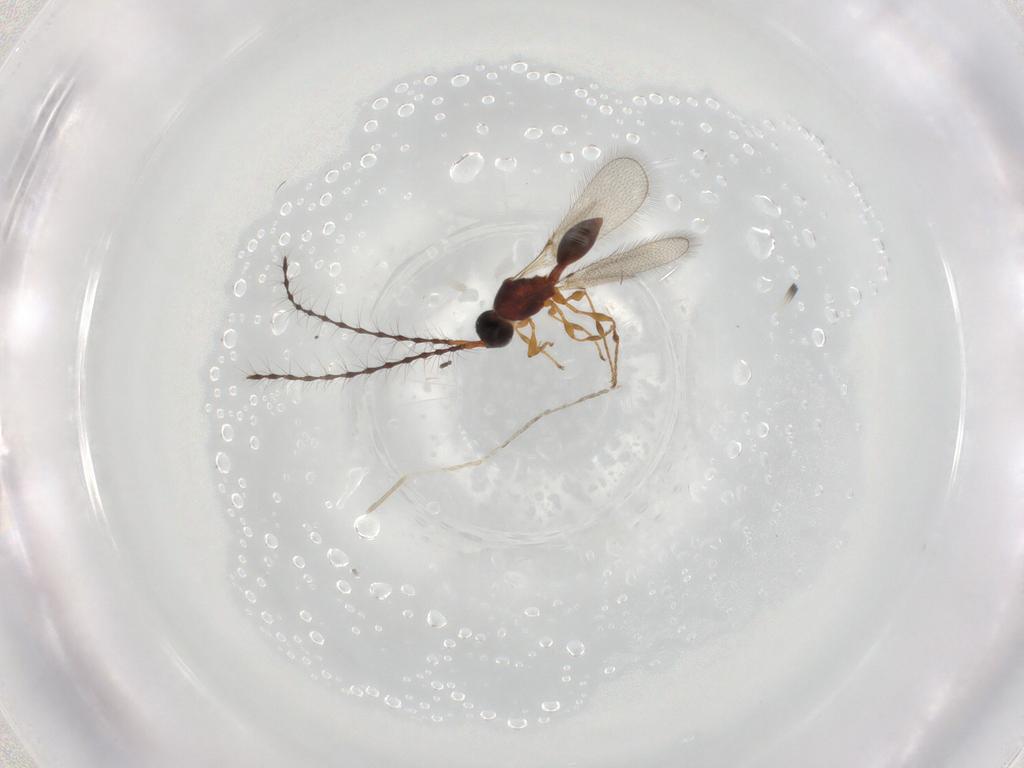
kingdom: Animalia
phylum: Arthropoda
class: Insecta
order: Hymenoptera
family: Diapriidae
